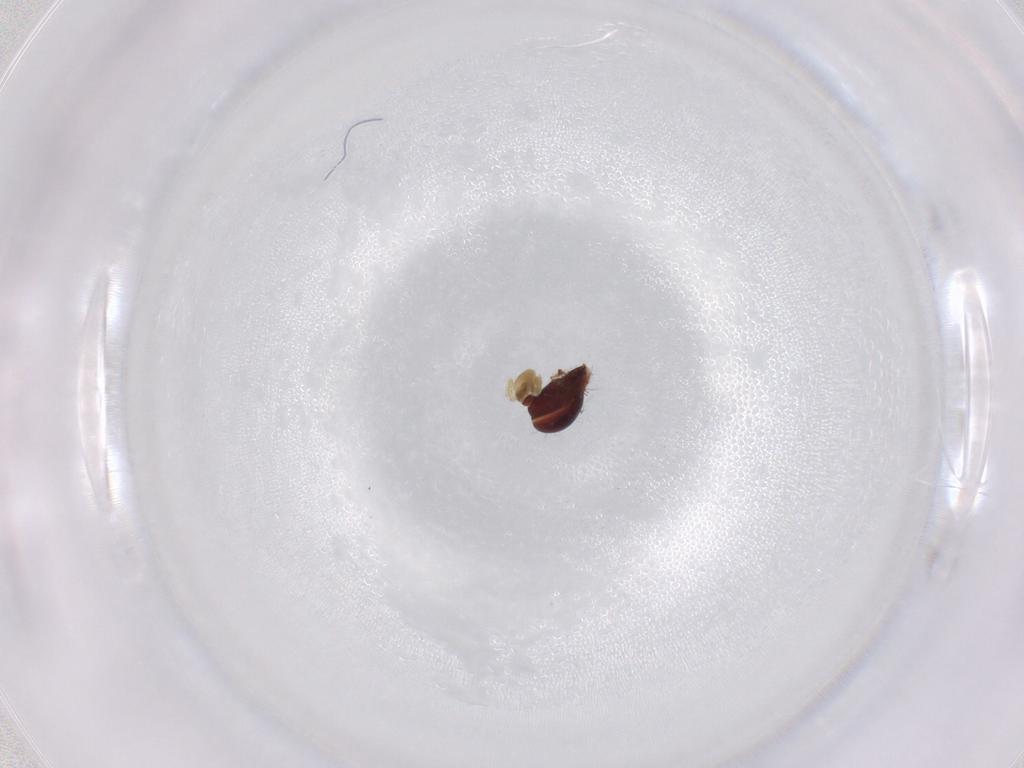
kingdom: Animalia
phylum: Arthropoda
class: Arachnida
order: Sarcoptiformes
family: Humerobatidae
